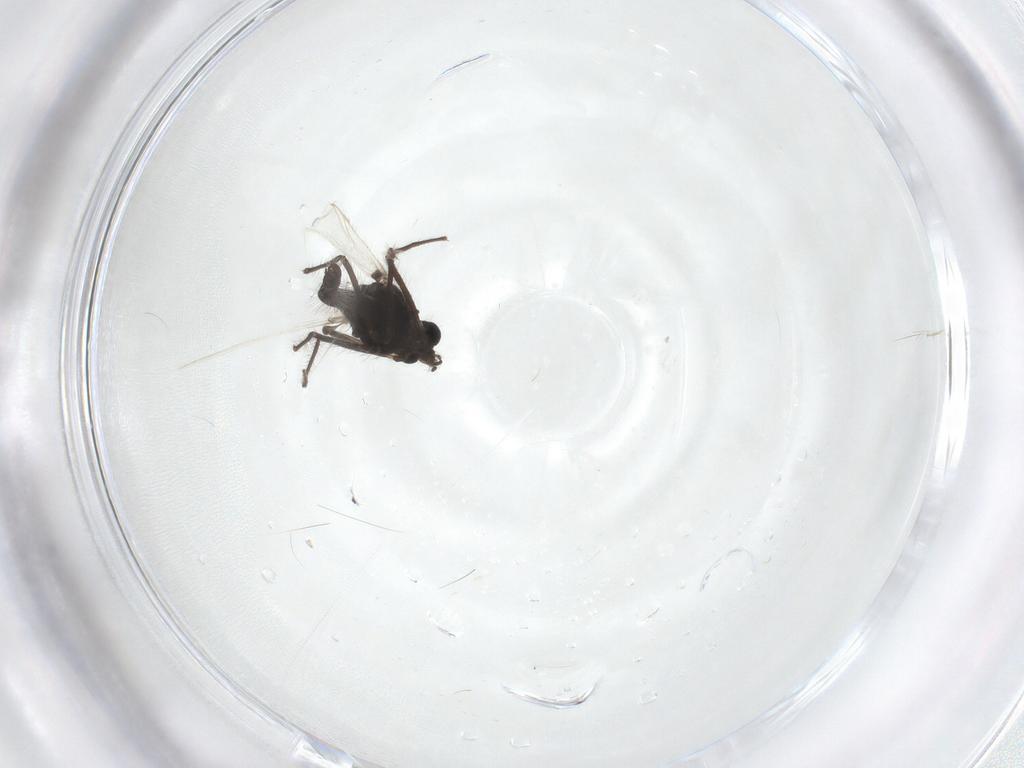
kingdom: Animalia
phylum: Arthropoda
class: Insecta
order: Diptera
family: Chironomidae
